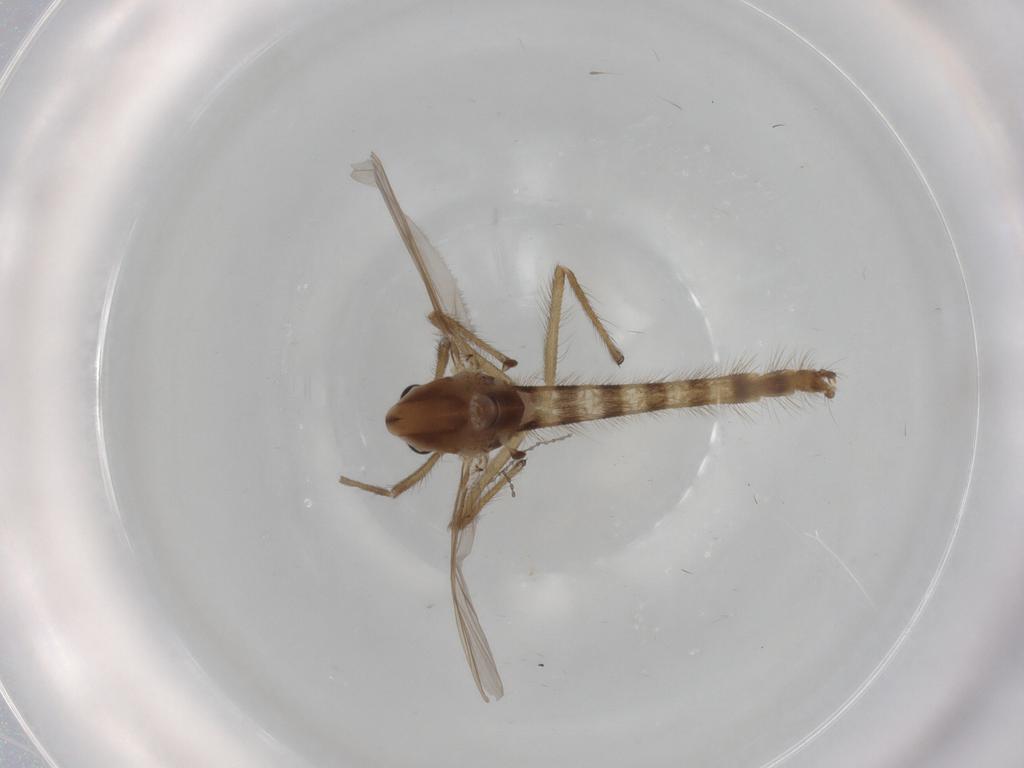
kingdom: Animalia
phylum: Arthropoda
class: Insecta
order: Diptera
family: Chironomidae
